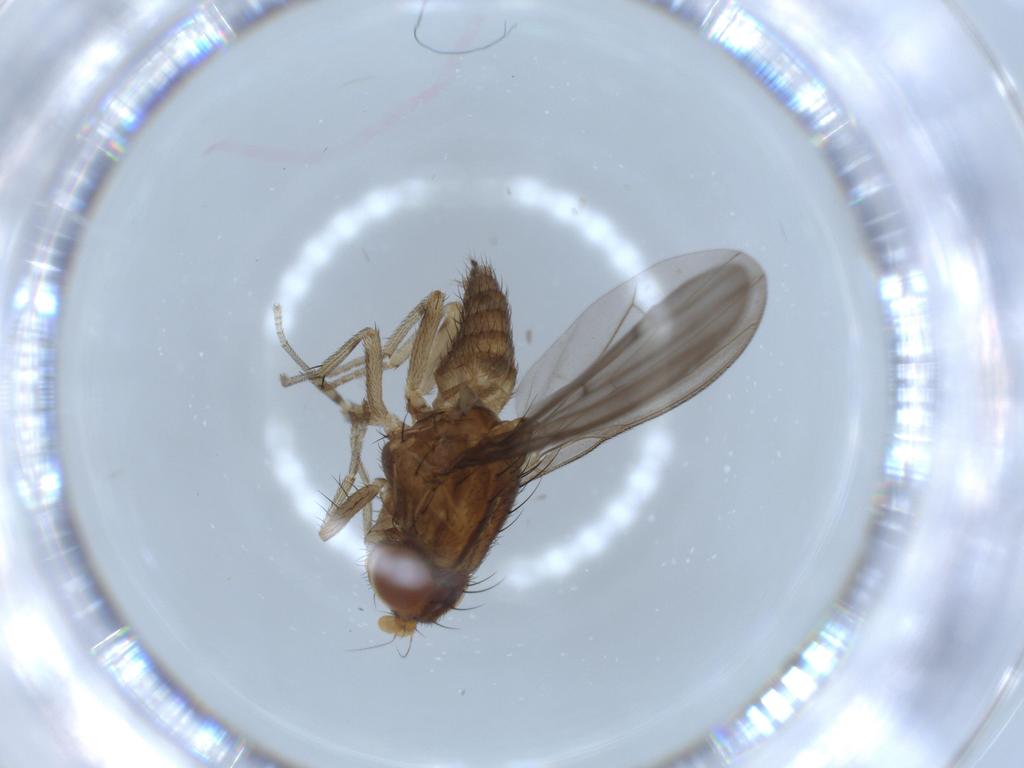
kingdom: Animalia
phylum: Arthropoda
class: Insecta
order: Diptera
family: Lauxaniidae
